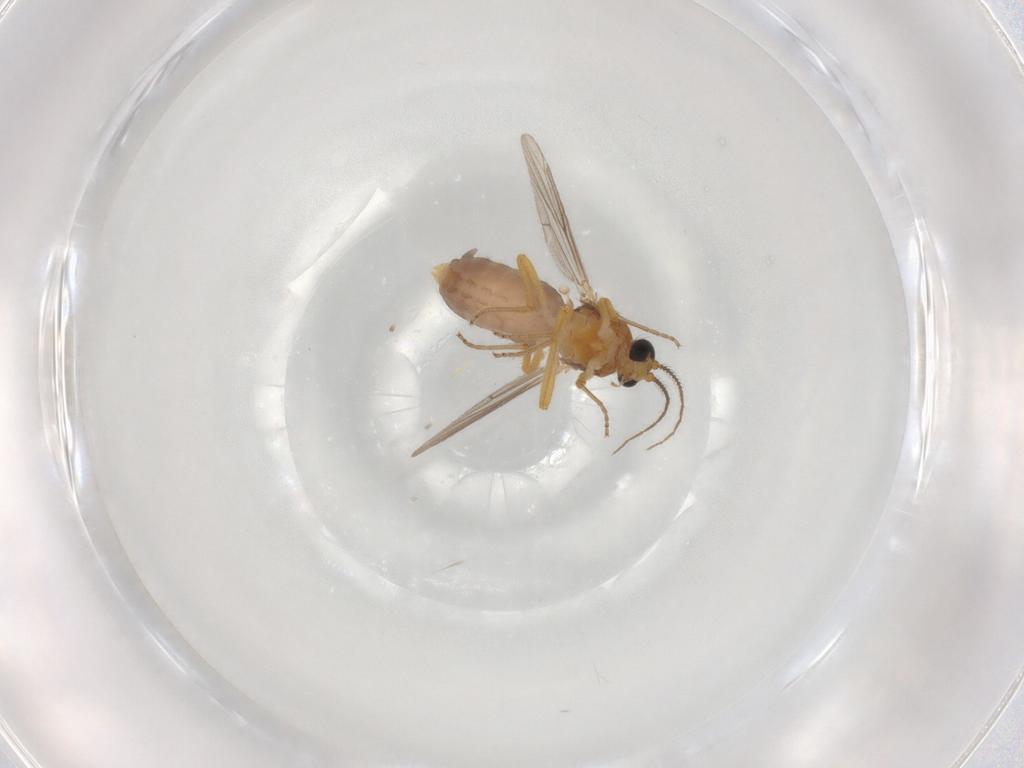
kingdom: Animalia
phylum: Arthropoda
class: Insecta
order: Diptera
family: Ceratopogonidae
